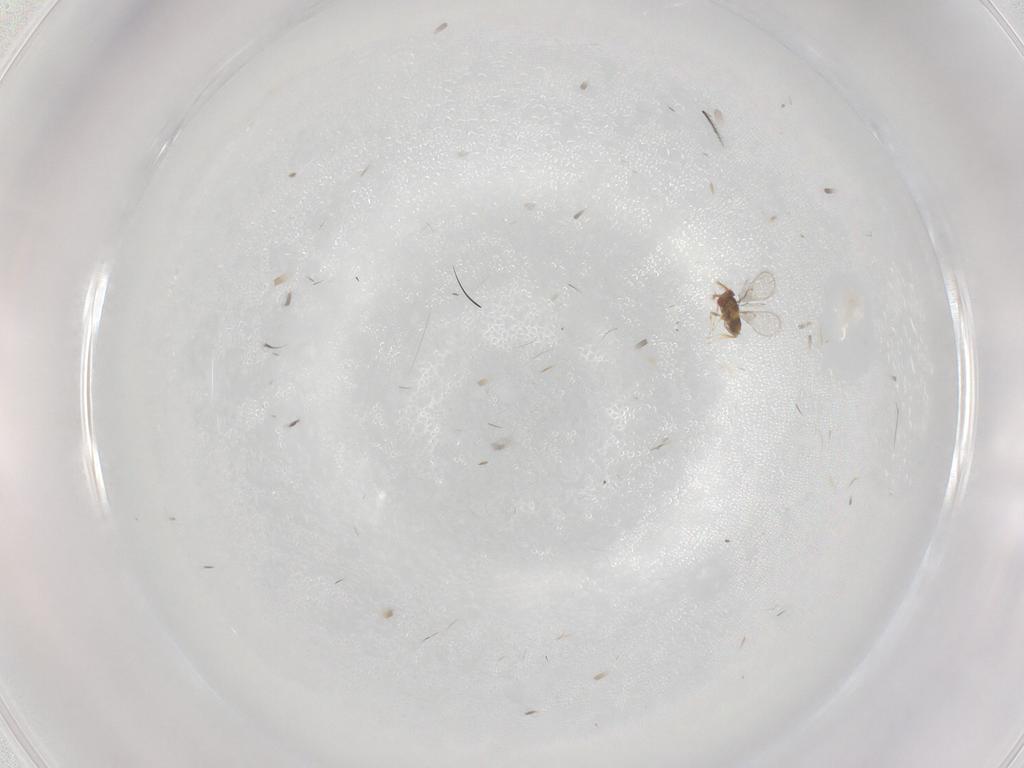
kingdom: Animalia
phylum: Arthropoda
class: Insecta
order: Hymenoptera
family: Trichogrammatidae
